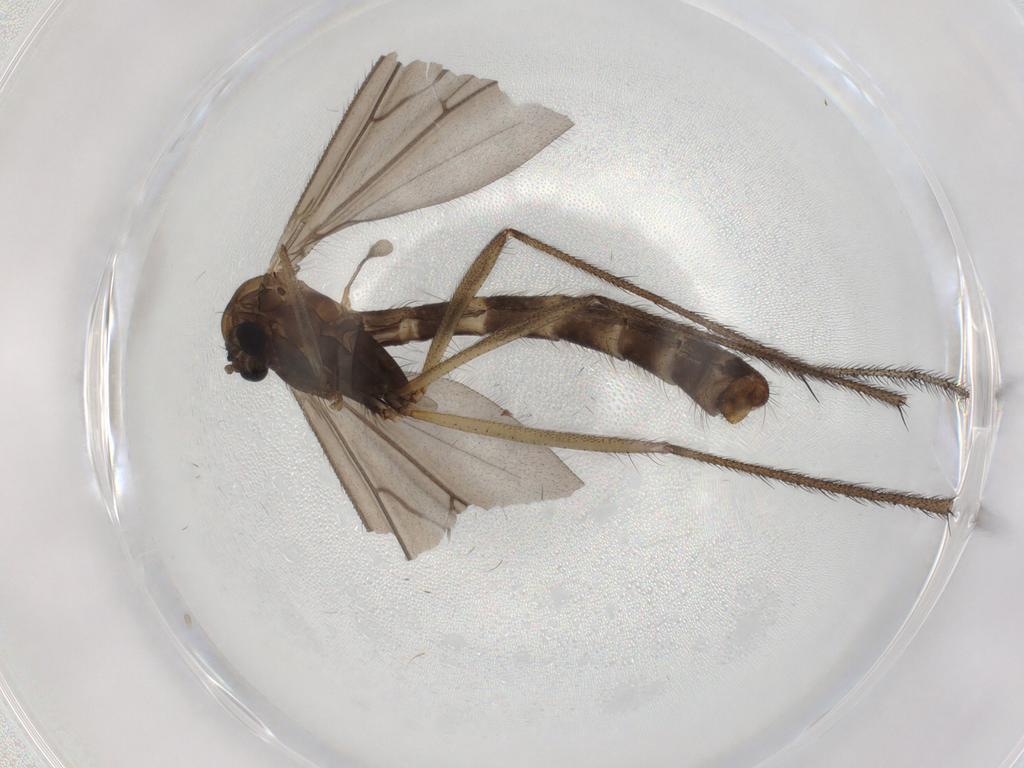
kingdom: Animalia
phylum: Arthropoda
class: Insecta
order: Diptera
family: Ditomyiidae
